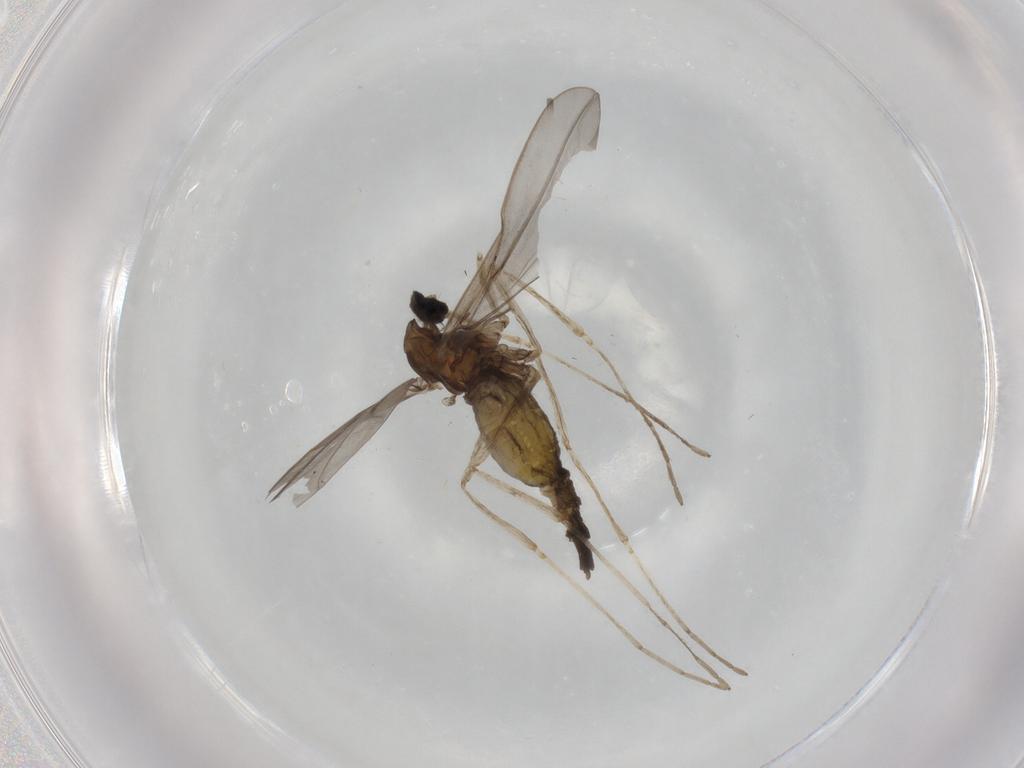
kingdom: Animalia
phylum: Arthropoda
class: Insecta
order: Diptera
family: Cecidomyiidae
